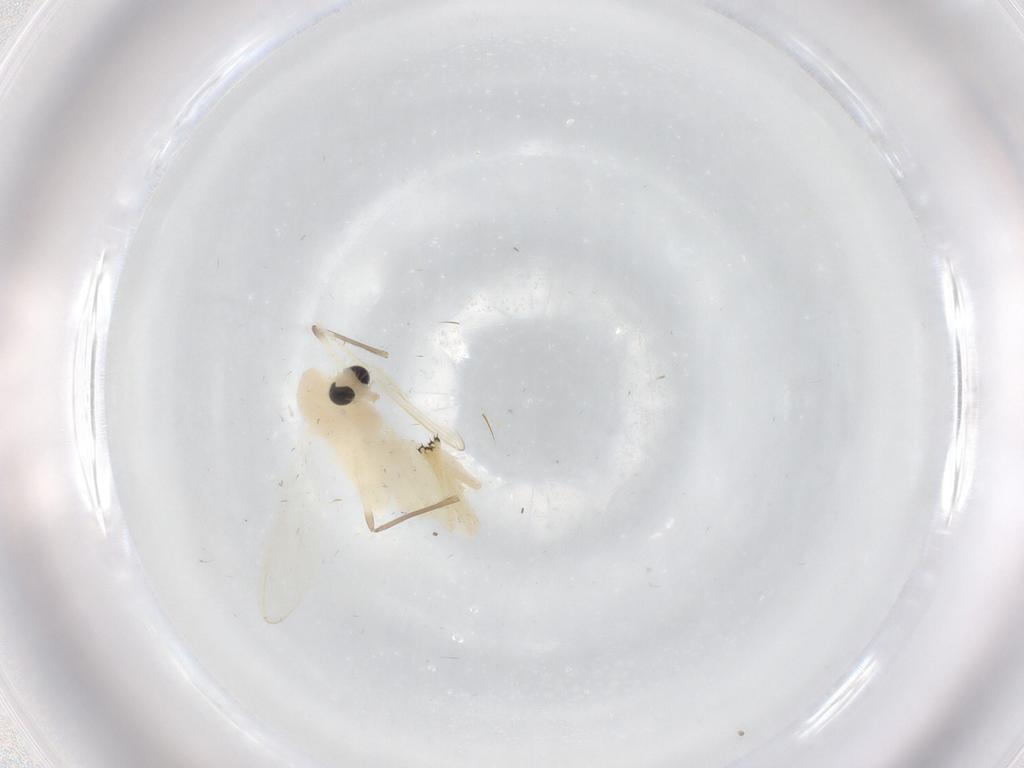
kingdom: Animalia
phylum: Arthropoda
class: Insecta
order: Diptera
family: Chironomidae
